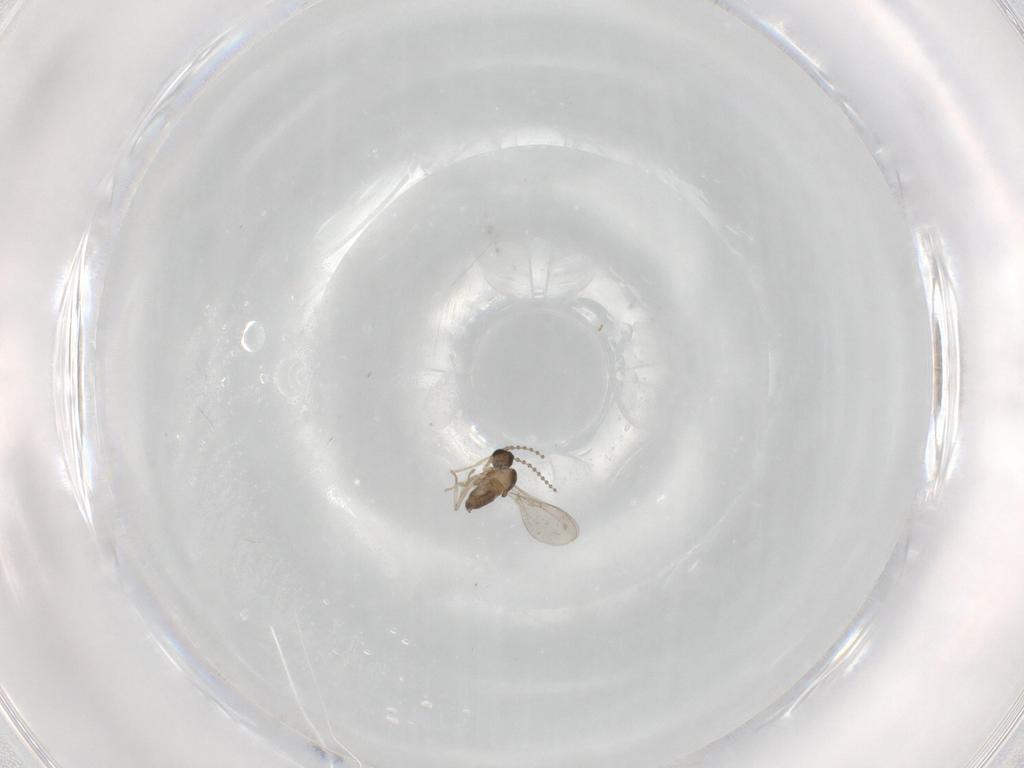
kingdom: Animalia
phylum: Arthropoda
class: Insecta
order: Diptera
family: Cecidomyiidae
